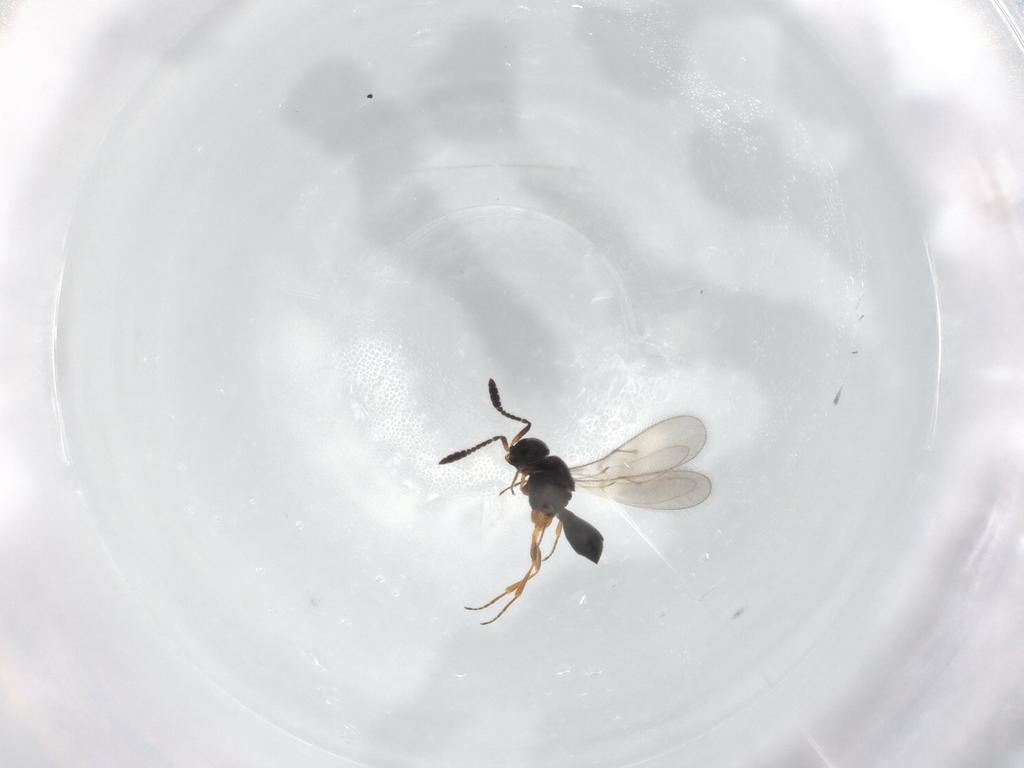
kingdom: Animalia
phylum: Arthropoda
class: Insecta
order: Hymenoptera
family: Scelionidae
